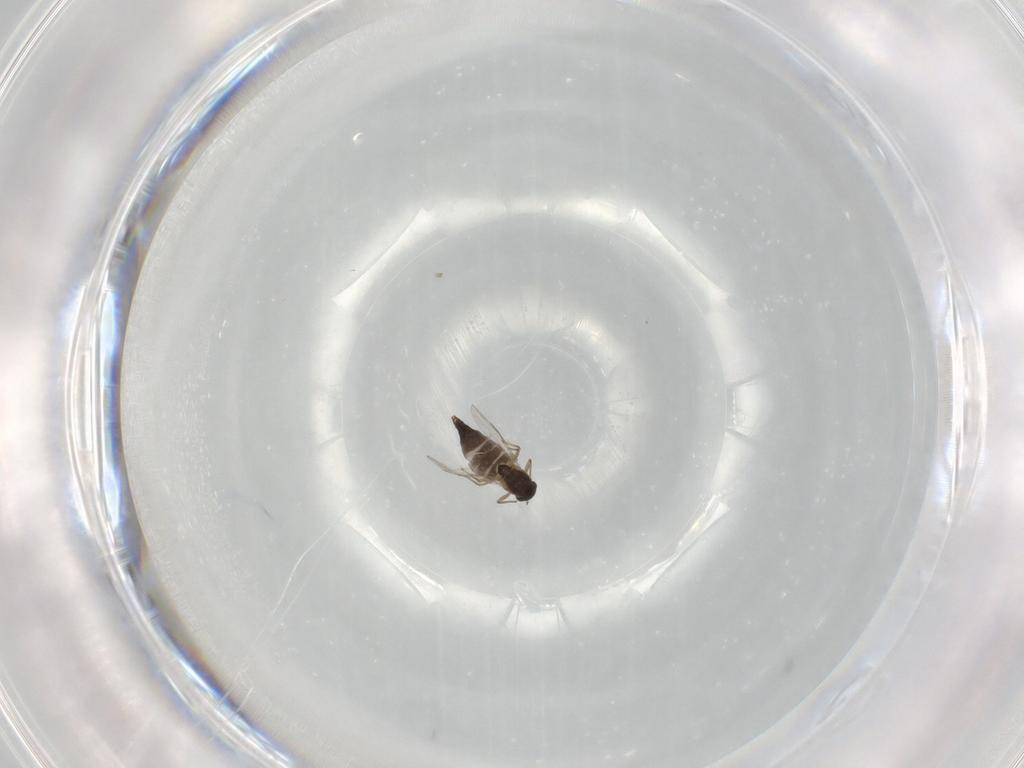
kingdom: Animalia
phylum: Arthropoda
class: Insecta
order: Diptera
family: Chironomidae
